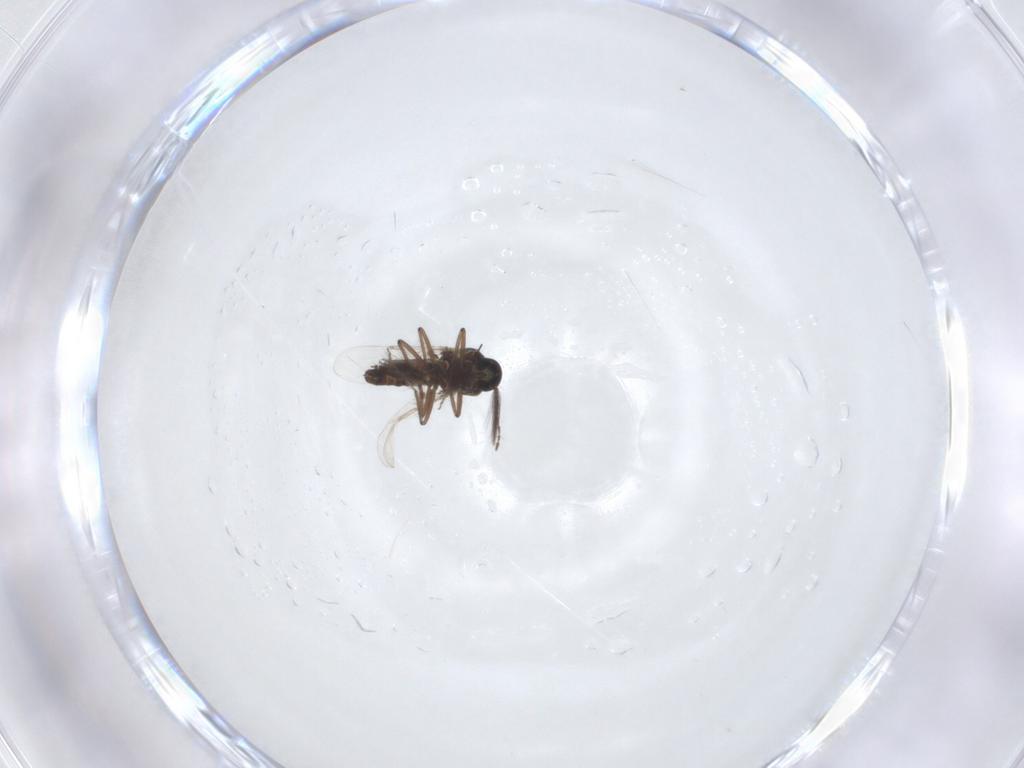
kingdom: Animalia
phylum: Arthropoda
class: Insecta
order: Diptera
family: Ceratopogonidae
